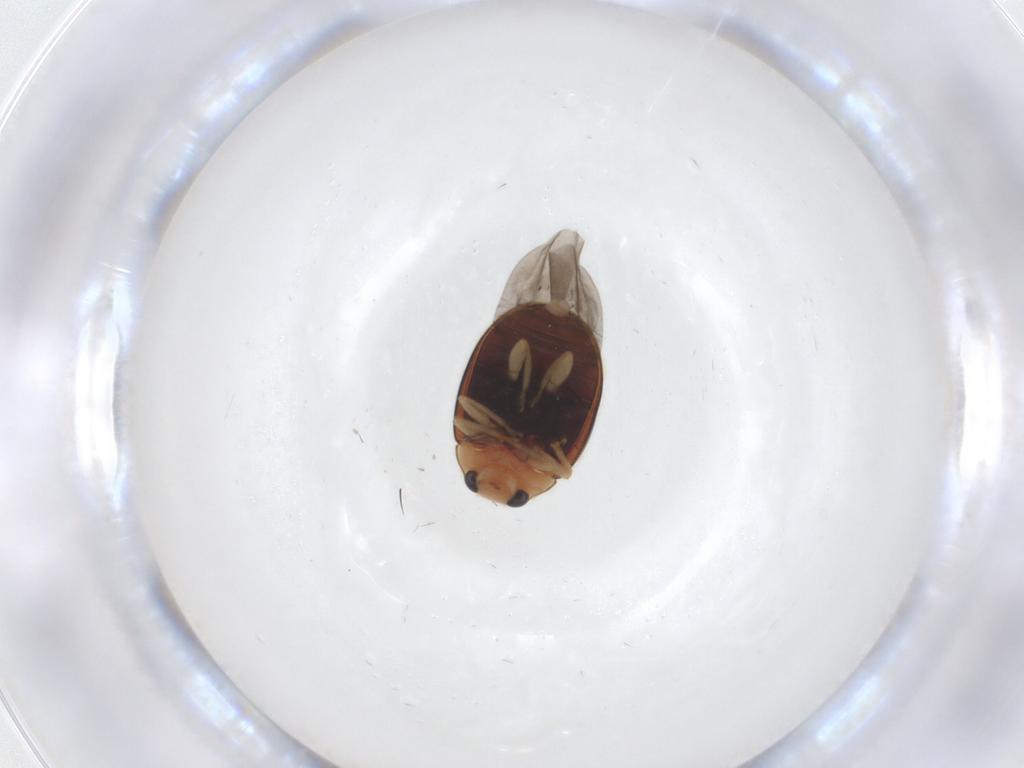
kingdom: Animalia
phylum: Arthropoda
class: Insecta
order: Coleoptera
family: Coccinellidae
